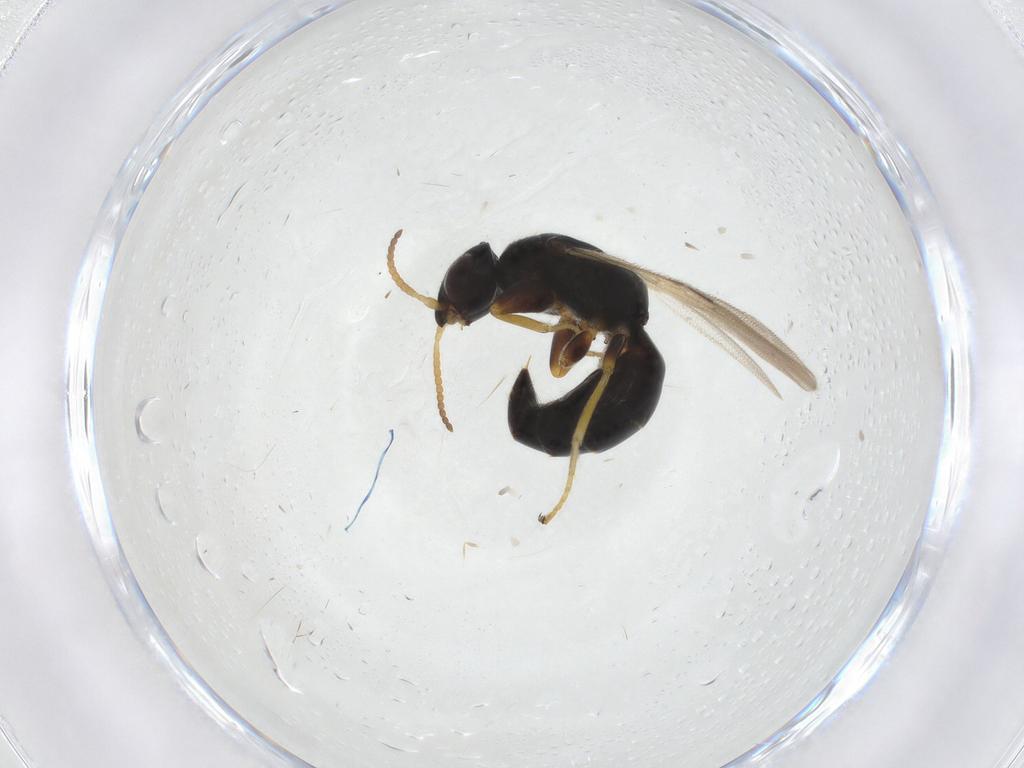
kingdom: Animalia
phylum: Arthropoda
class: Insecta
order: Hymenoptera
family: Bethylidae
